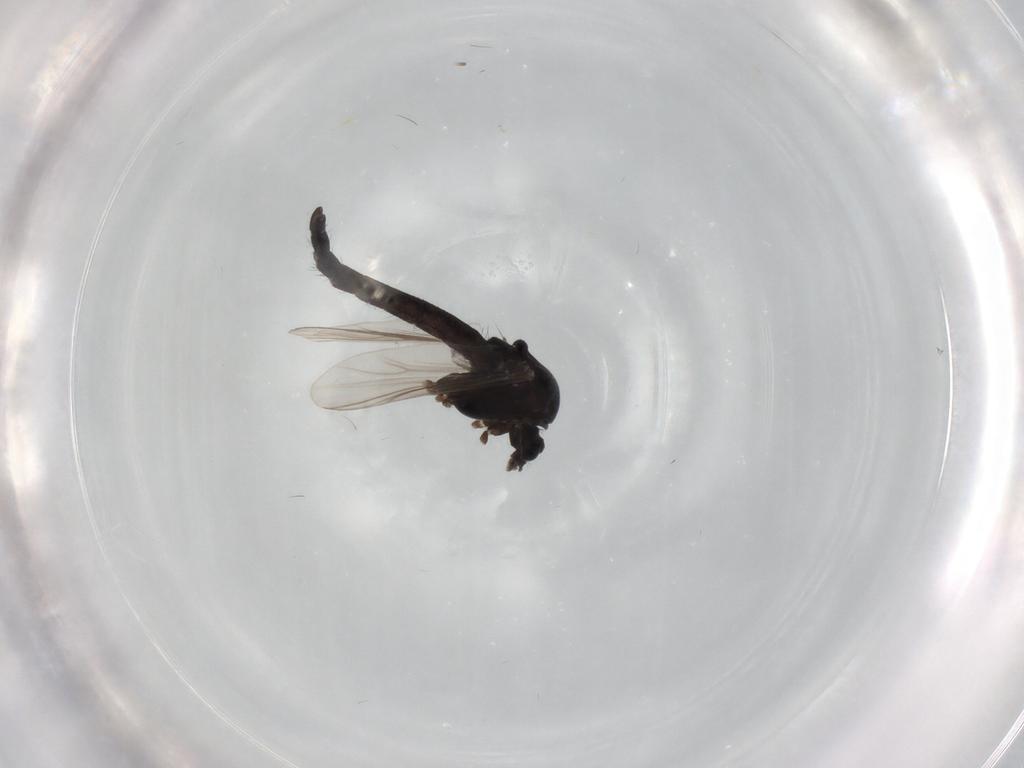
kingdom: Animalia
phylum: Arthropoda
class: Insecta
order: Diptera
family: Chironomidae
